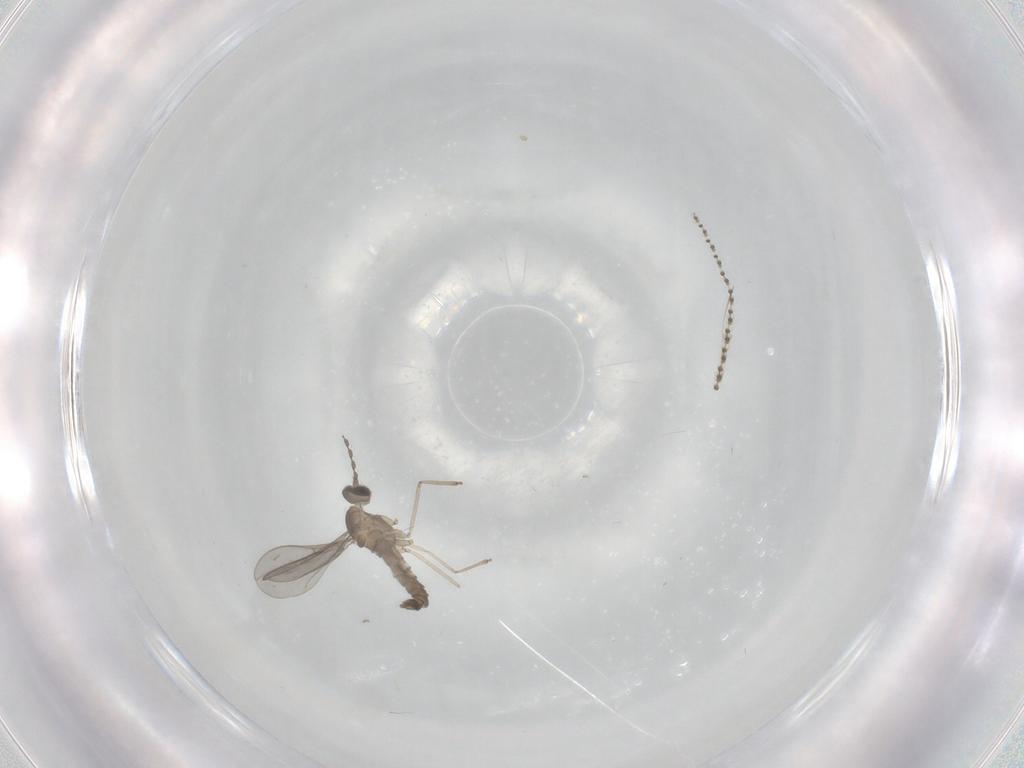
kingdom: Animalia
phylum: Arthropoda
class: Insecta
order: Diptera
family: Cecidomyiidae
